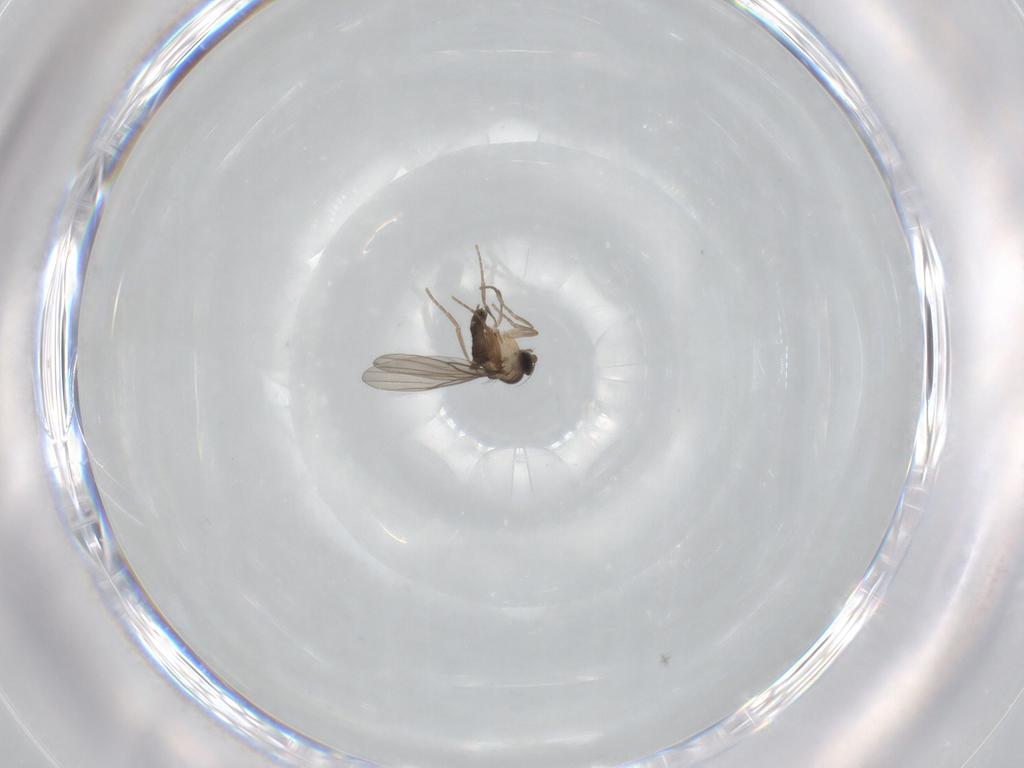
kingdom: Animalia
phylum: Arthropoda
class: Insecta
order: Diptera
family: Phoridae
